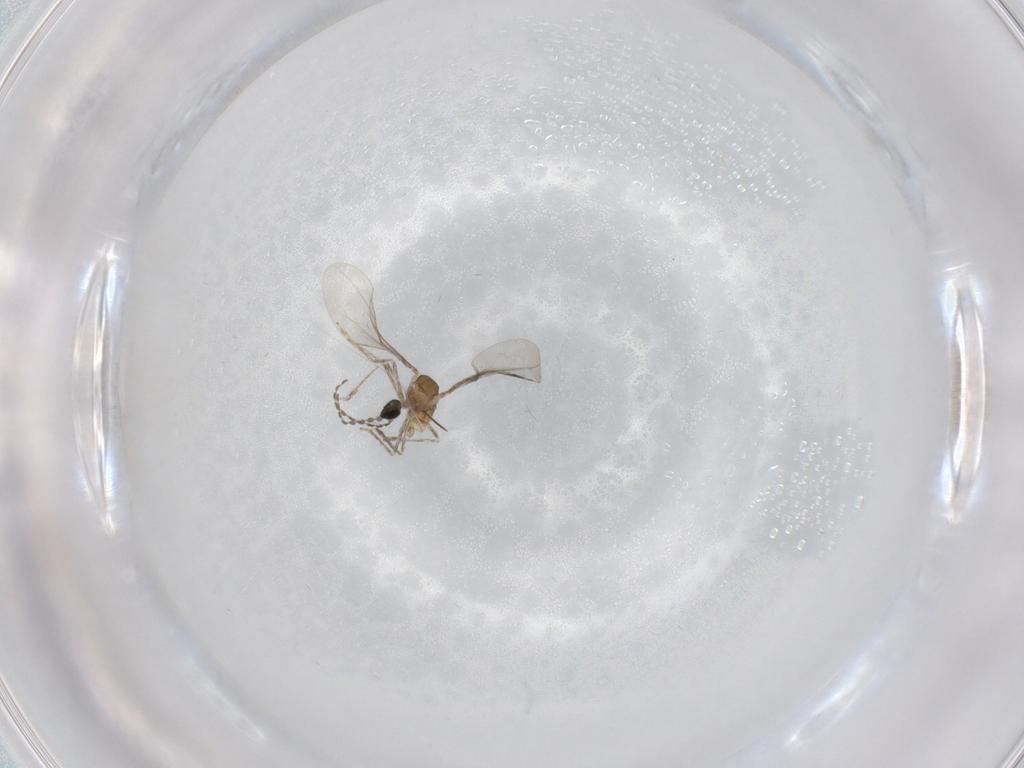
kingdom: Animalia
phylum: Arthropoda
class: Insecta
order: Diptera
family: Cecidomyiidae
